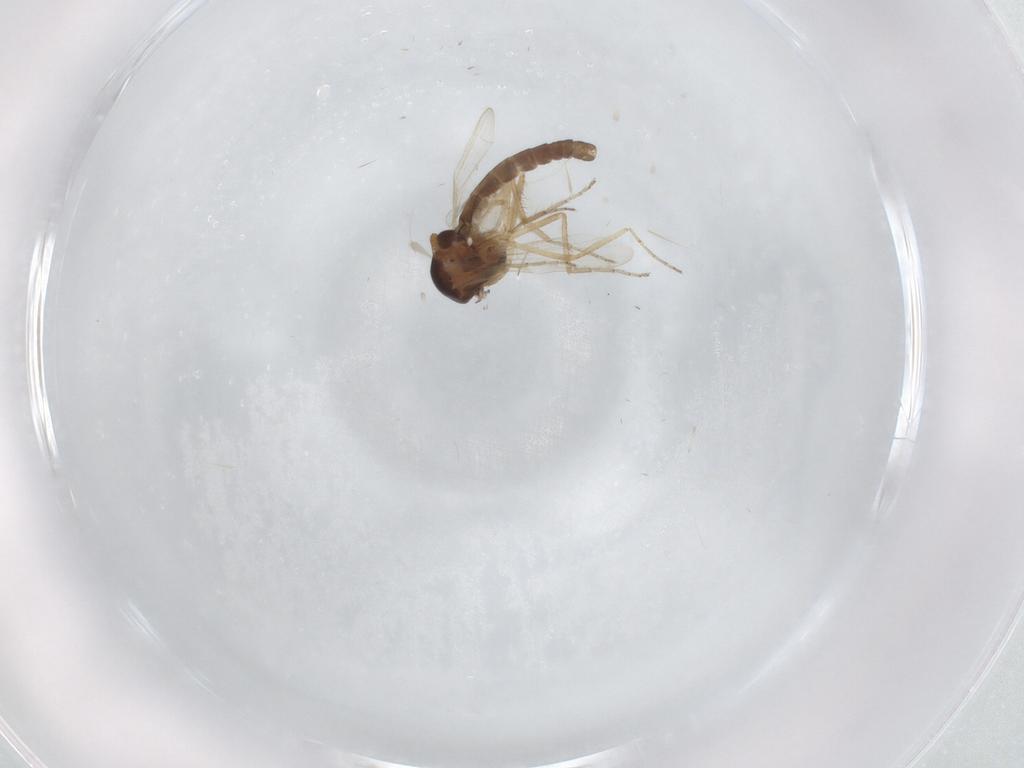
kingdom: Animalia
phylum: Arthropoda
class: Insecta
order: Diptera
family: Ceratopogonidae
